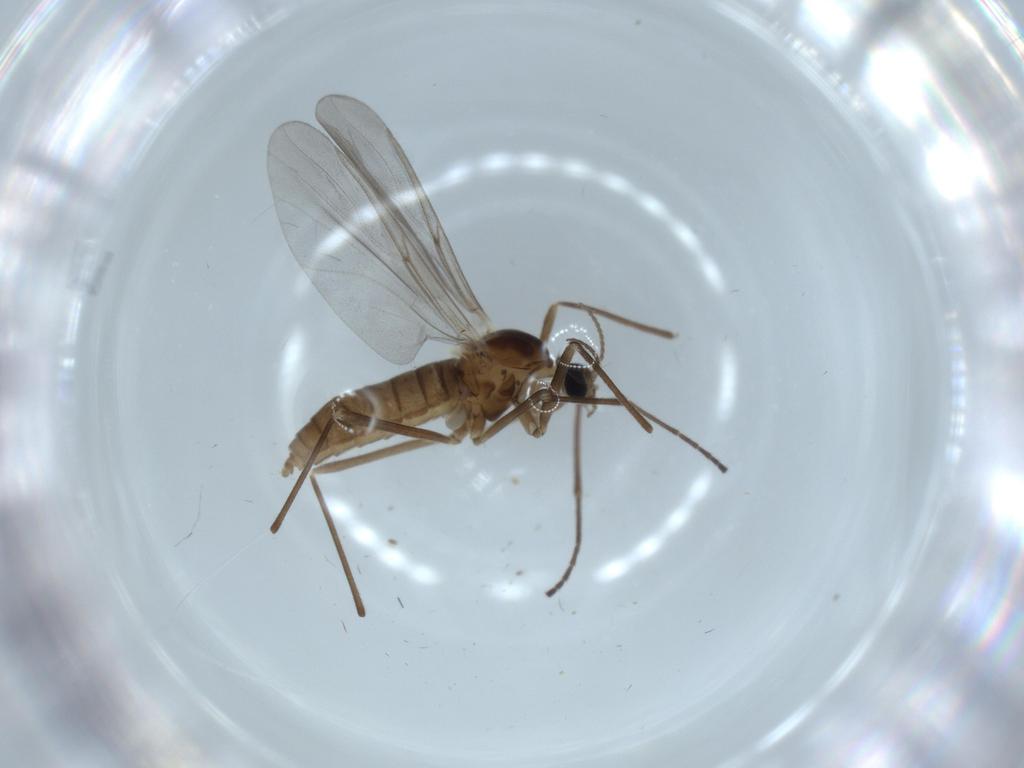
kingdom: Animalia
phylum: Arthropoda
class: Insecta
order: Diptera
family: Cecidomyiidae
